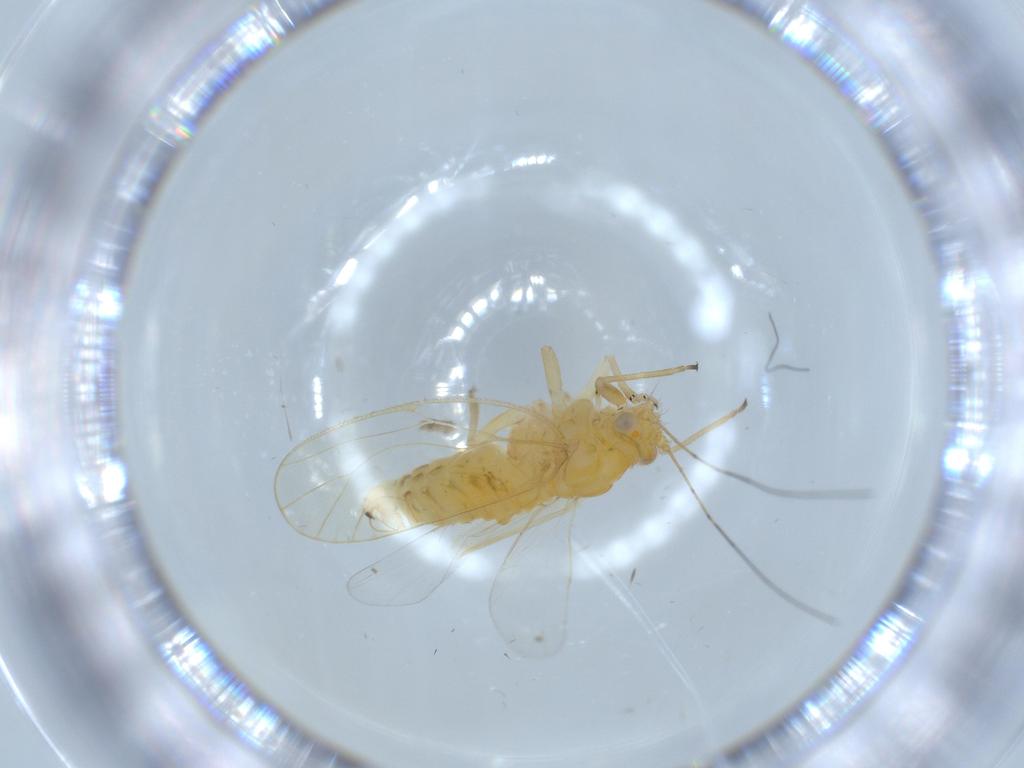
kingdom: Animalia
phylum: Arthropoda
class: Insecta
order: Hemiptera
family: Psyllidae
